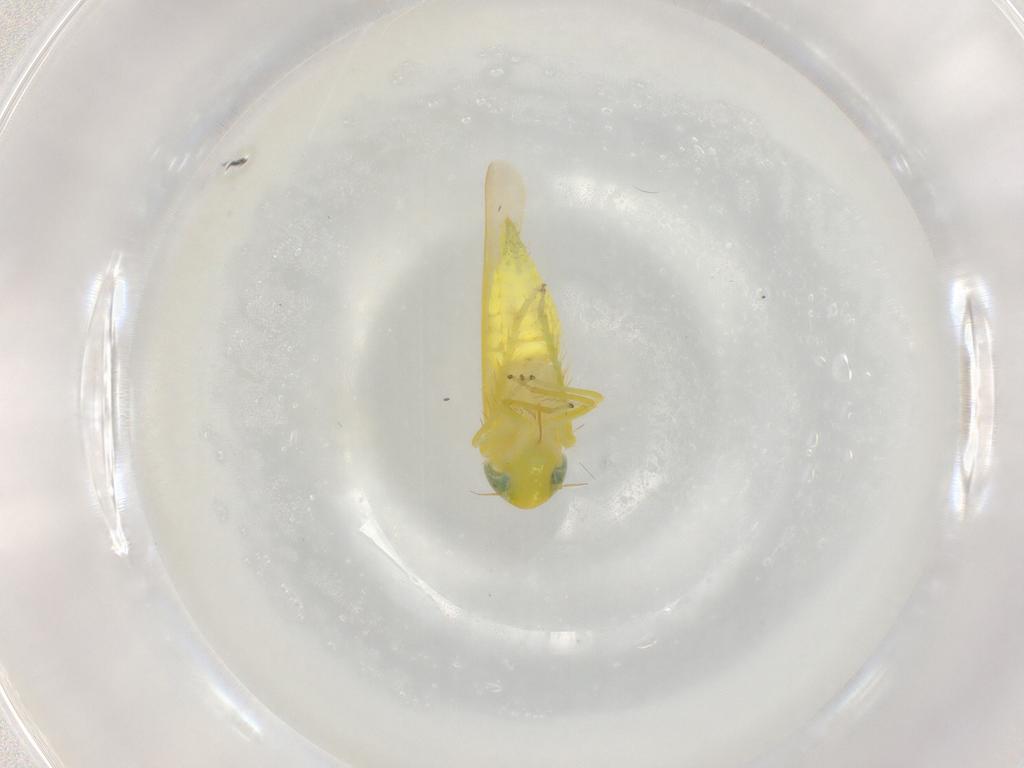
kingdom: Animalia
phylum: Arthropoda
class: Insecta
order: Hemiptera
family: Cicadellidae
